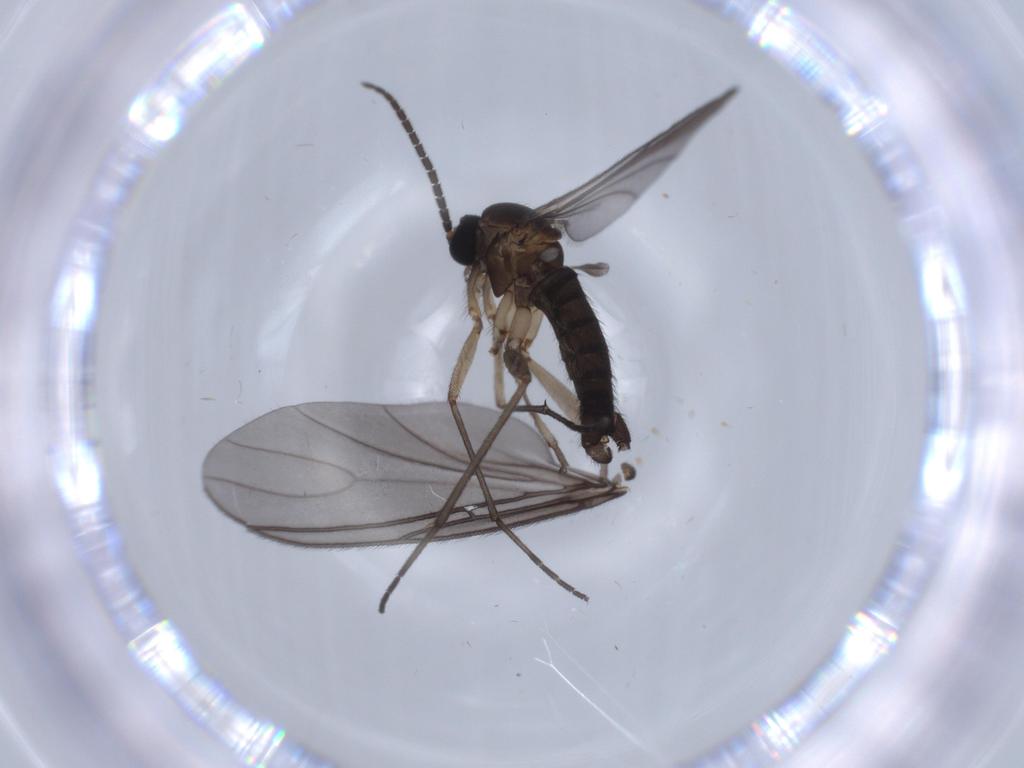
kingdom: Animalia
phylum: Arthropoda
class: Insecta
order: Diptera
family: Sciaridae
